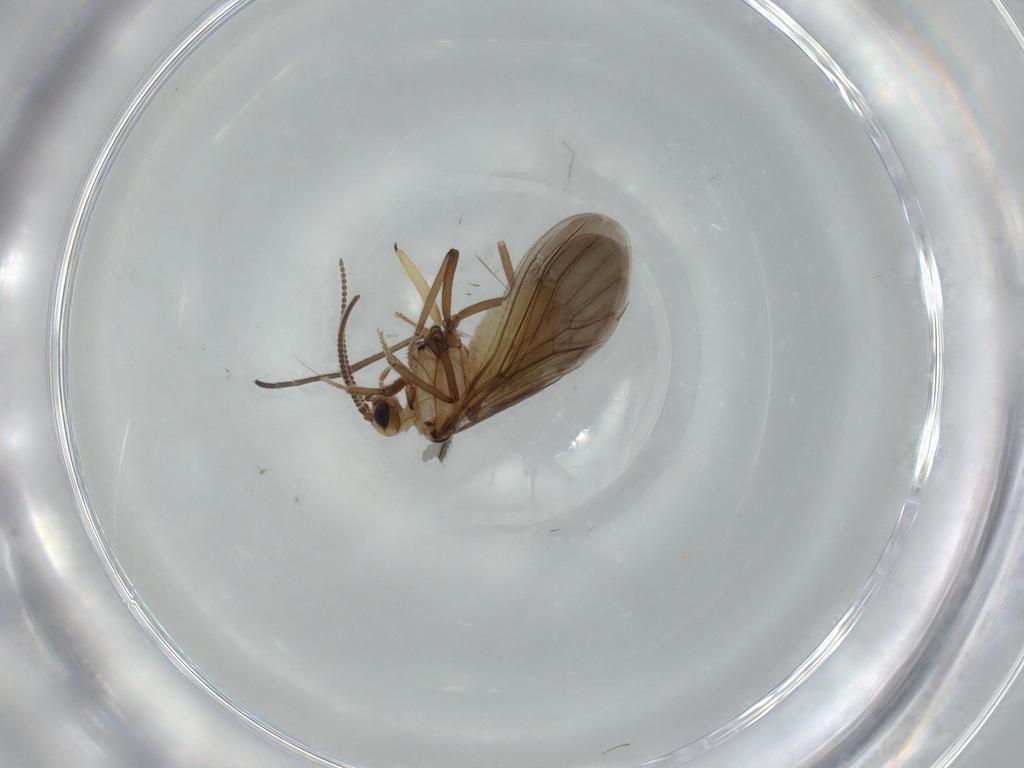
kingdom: Animalia
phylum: Arthropoda
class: Insecta
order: Neuroptera
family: Coniopterygidae
